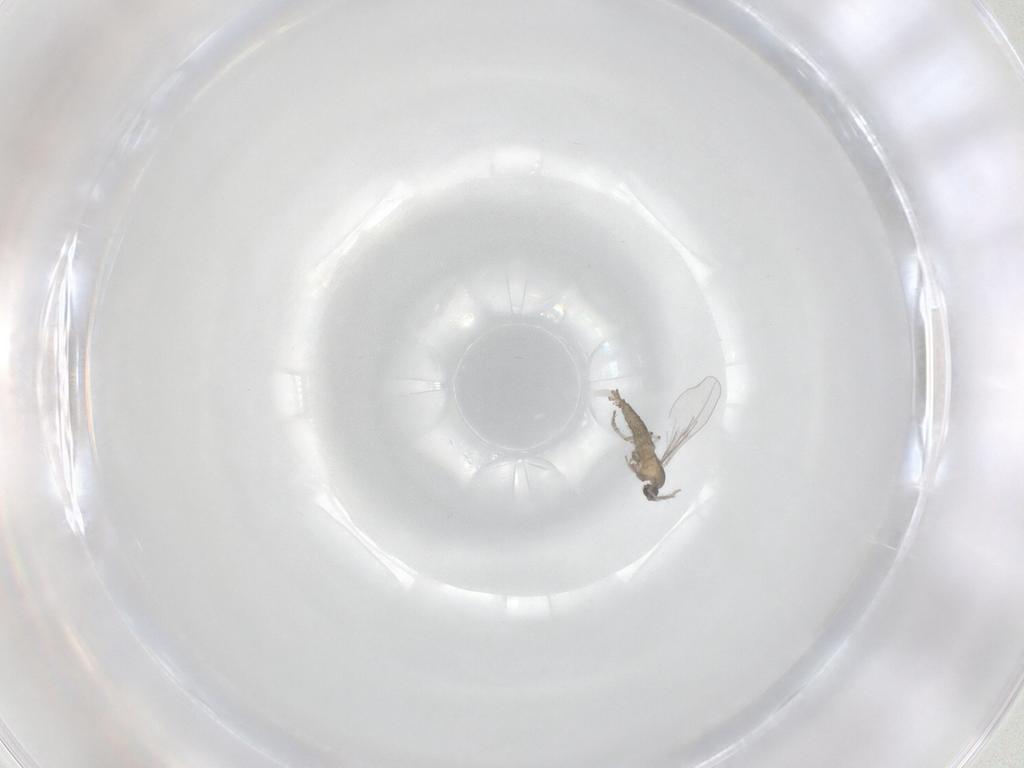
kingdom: Animalia
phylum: Arthropoda
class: Insecta
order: Diptera
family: Cecidomyiidae
